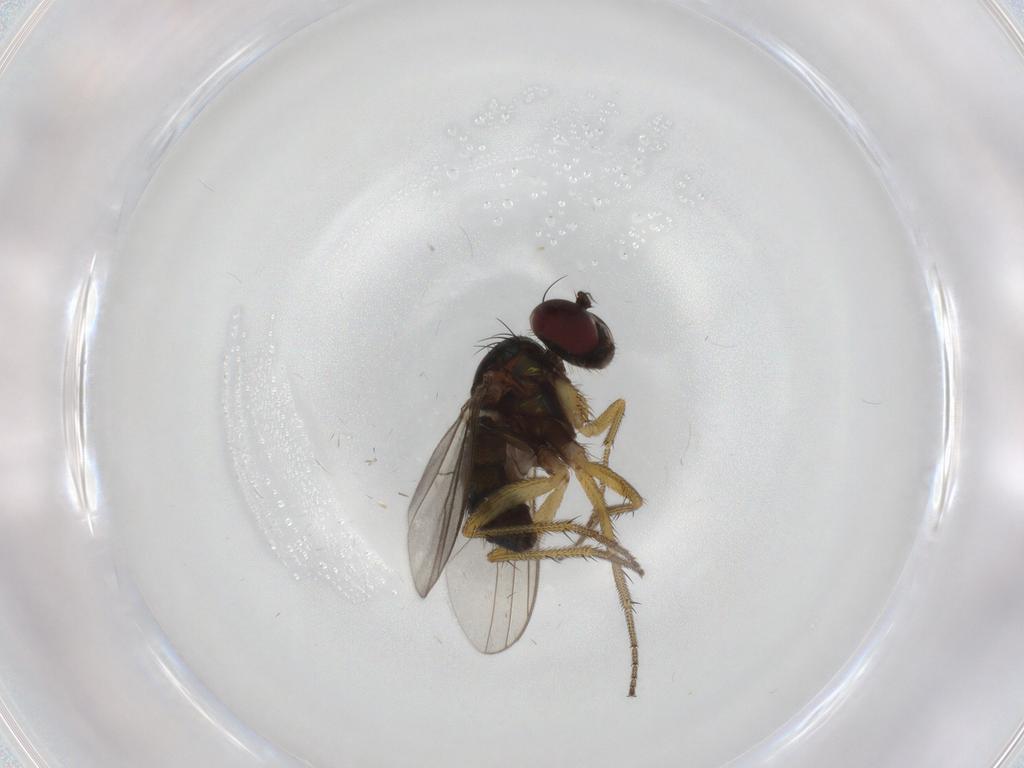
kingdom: Animalia
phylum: Arthropoda
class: Insecta
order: Diptera
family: Dolichopodidae
